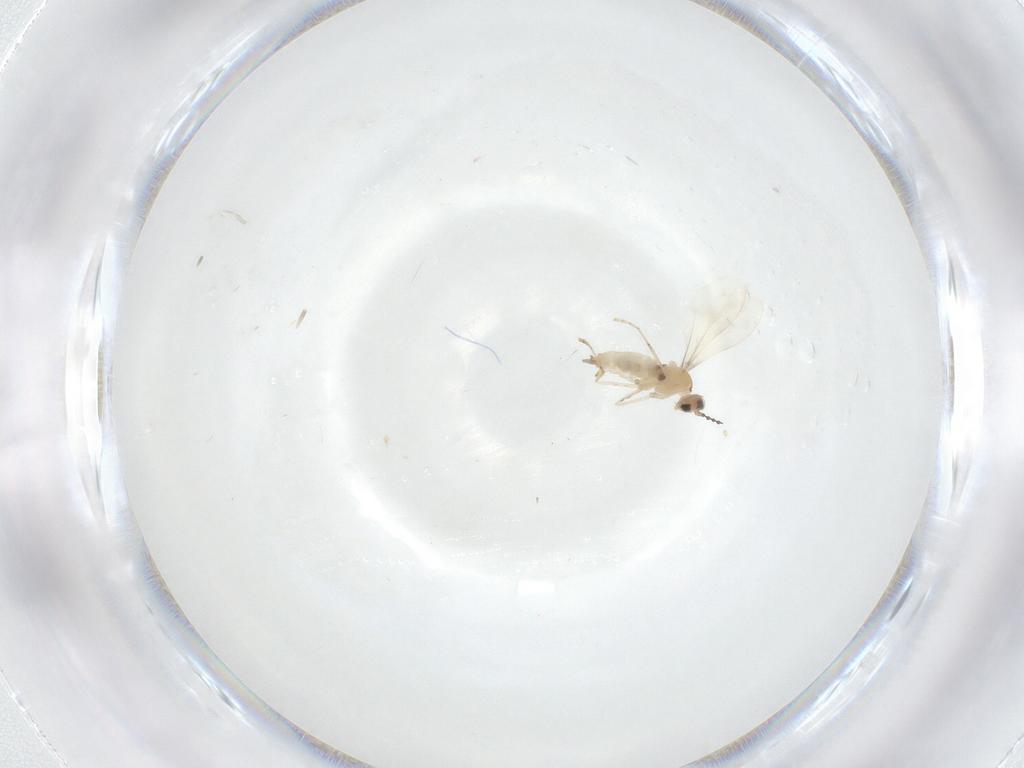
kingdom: Animalia
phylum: Arthropoda
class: Insecta
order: Diptera
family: Cecidomyiidae
